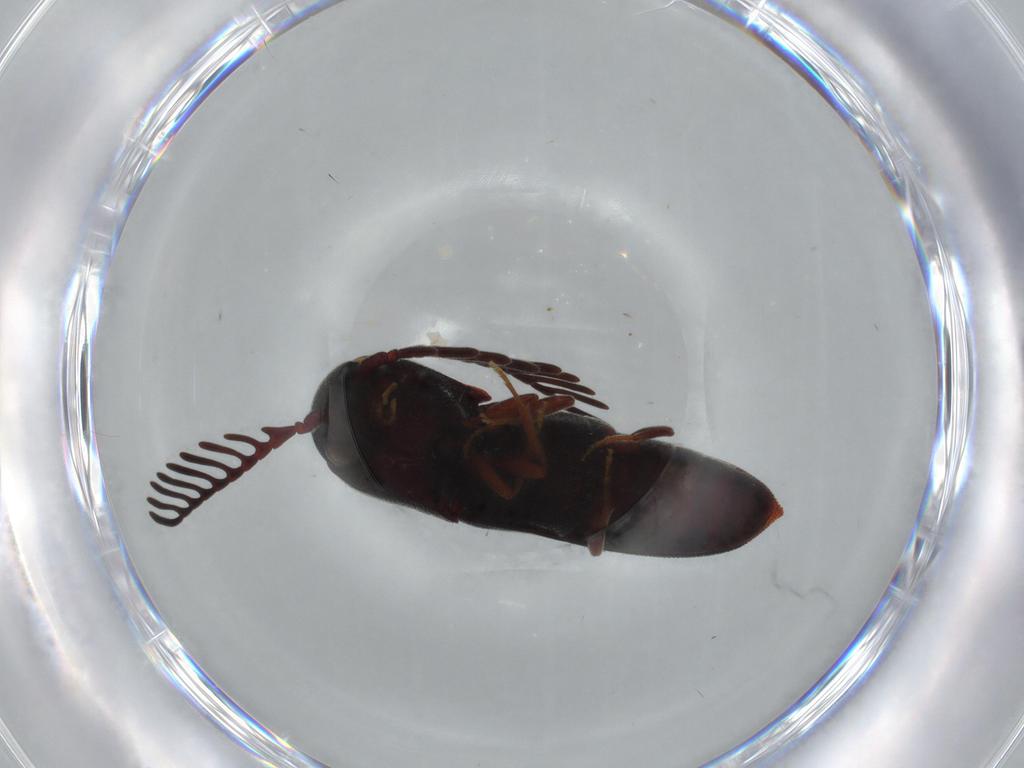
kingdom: Animalia
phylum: Arthropoda
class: Insecta
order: Coleoptera
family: Eucnemidae
